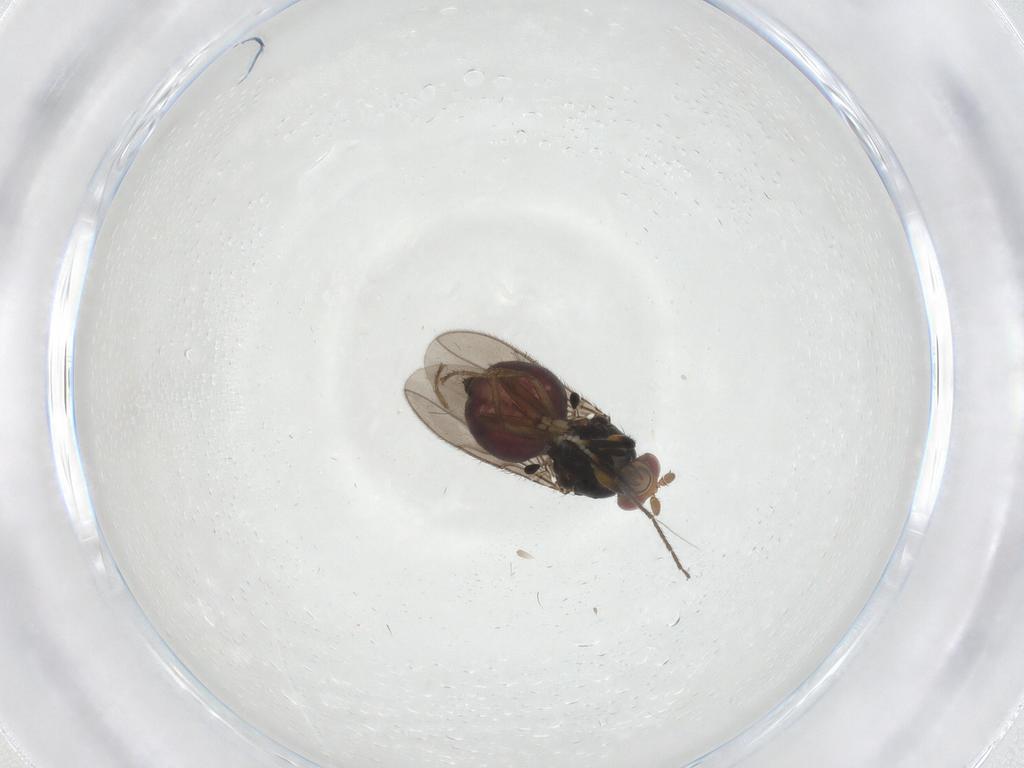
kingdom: Animalia
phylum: Arthropoda
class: Insecta
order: Diptera
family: Sphaeroceridae
